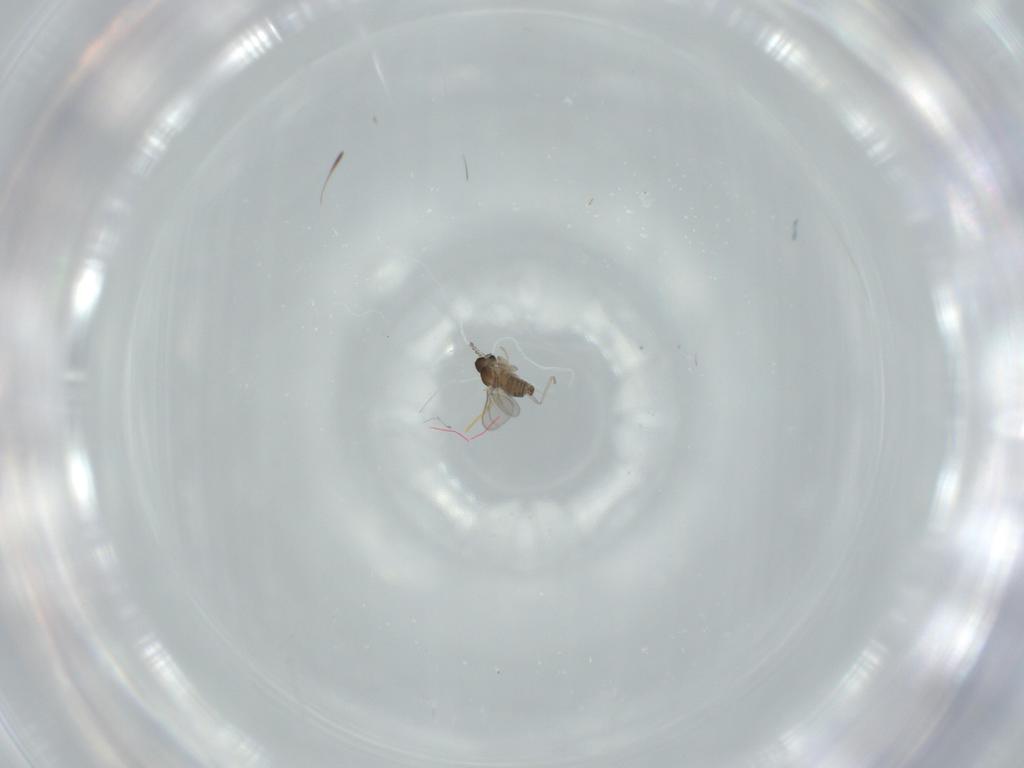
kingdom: Animalia
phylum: Arthropoda
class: Insecta
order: Diptera
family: Cecidomyiidae
